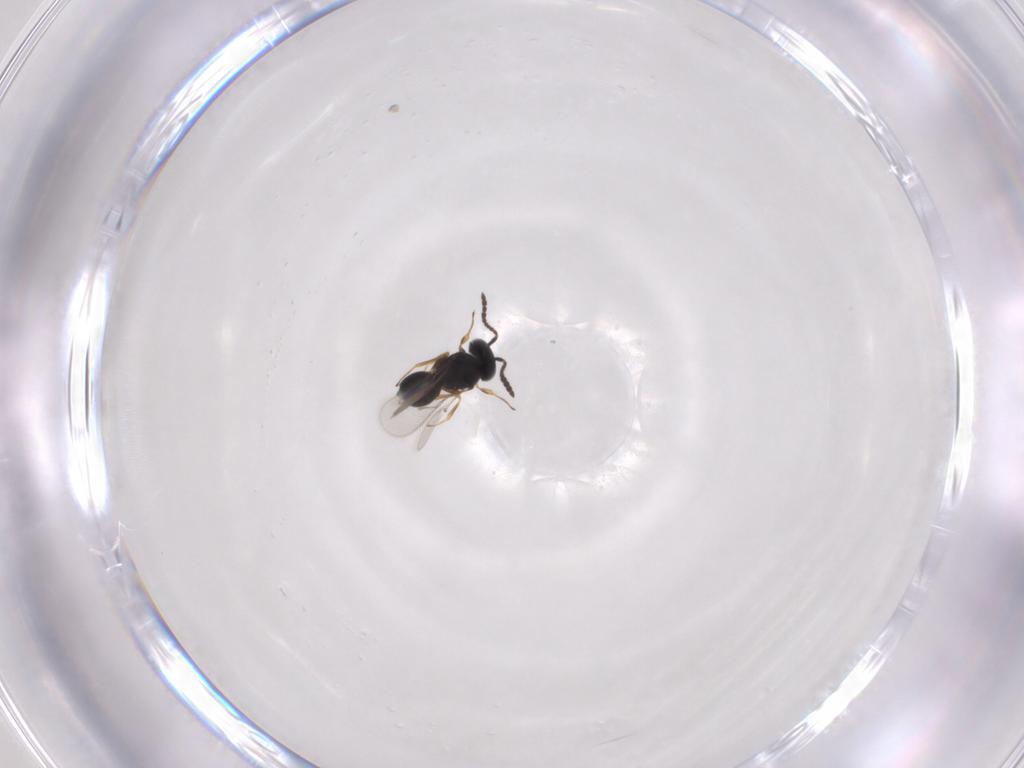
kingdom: Animalia
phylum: Arthropoda
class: Insecta
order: Hymenoptera
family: Scelionidae
